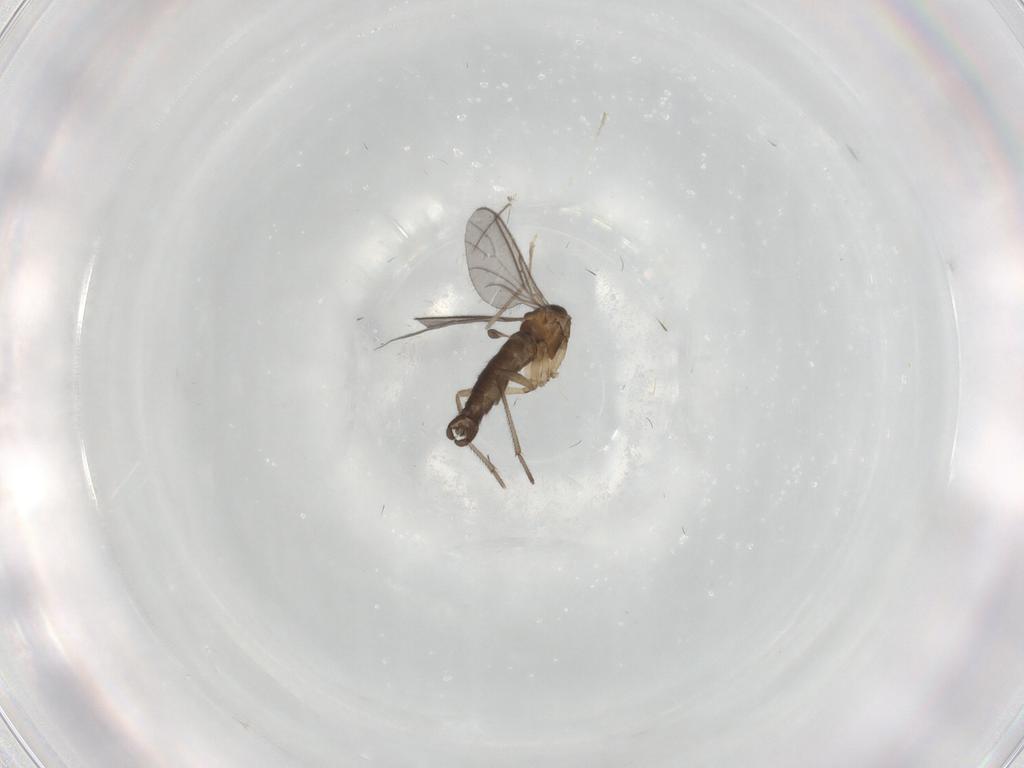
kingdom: Animalia
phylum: Arthropoda
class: Insecta
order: Diptera
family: Sciaridae
